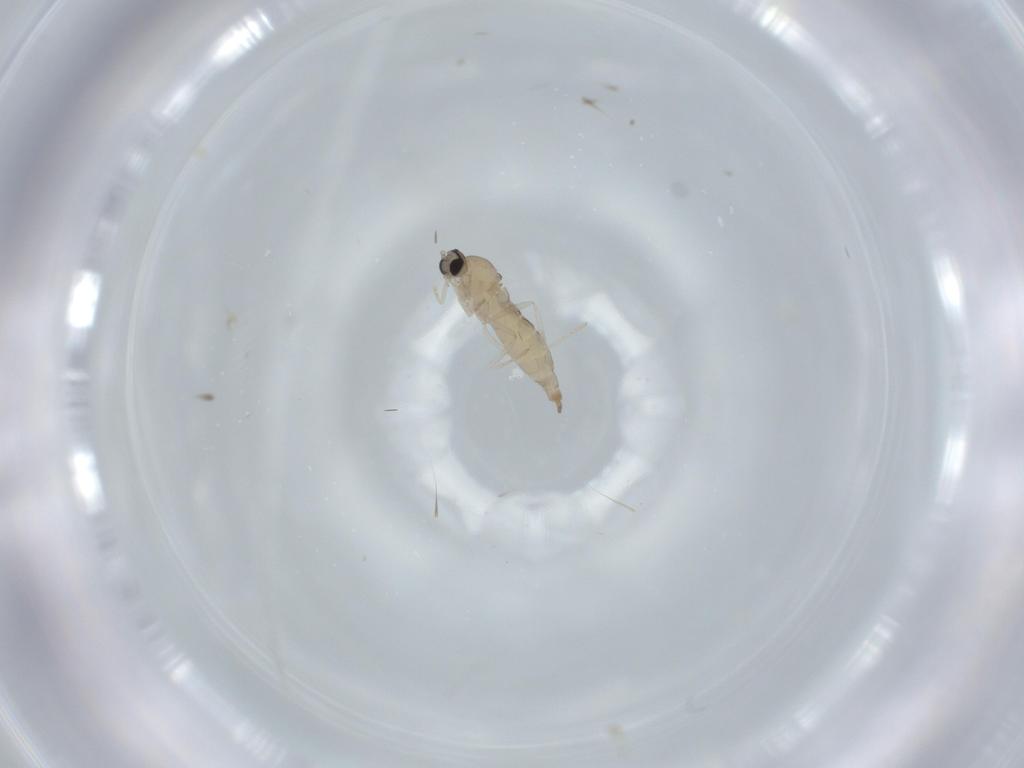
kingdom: Animalia
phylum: Arthropoda
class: Insecta
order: Diptera
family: Cecidomyiidae
